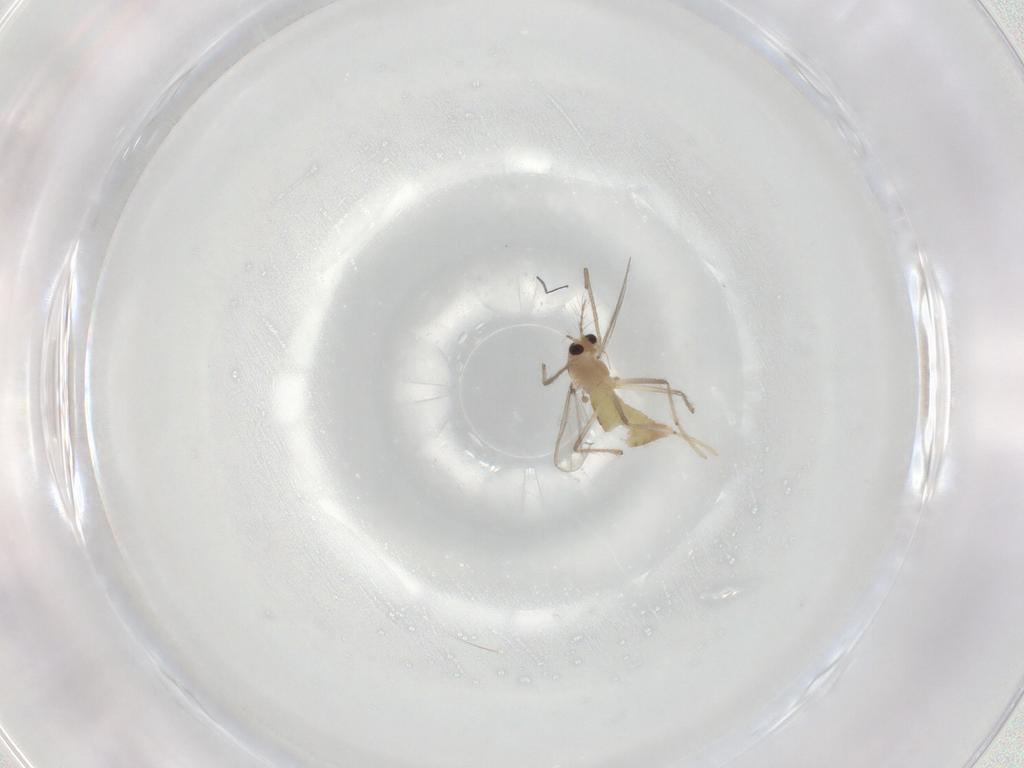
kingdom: Animalia
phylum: Arthropoda
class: Insecta
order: Diptera
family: Chironomidae
